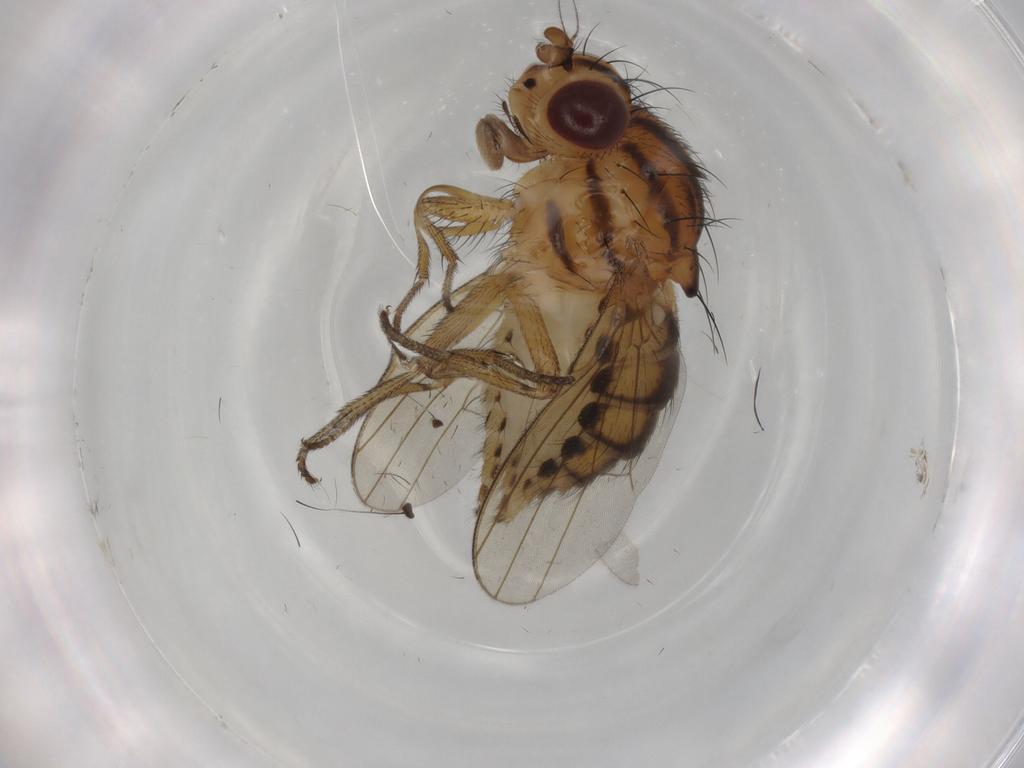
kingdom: Animalia
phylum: Arthropoda
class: Insecta
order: Diptera
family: Dolichopodidae
